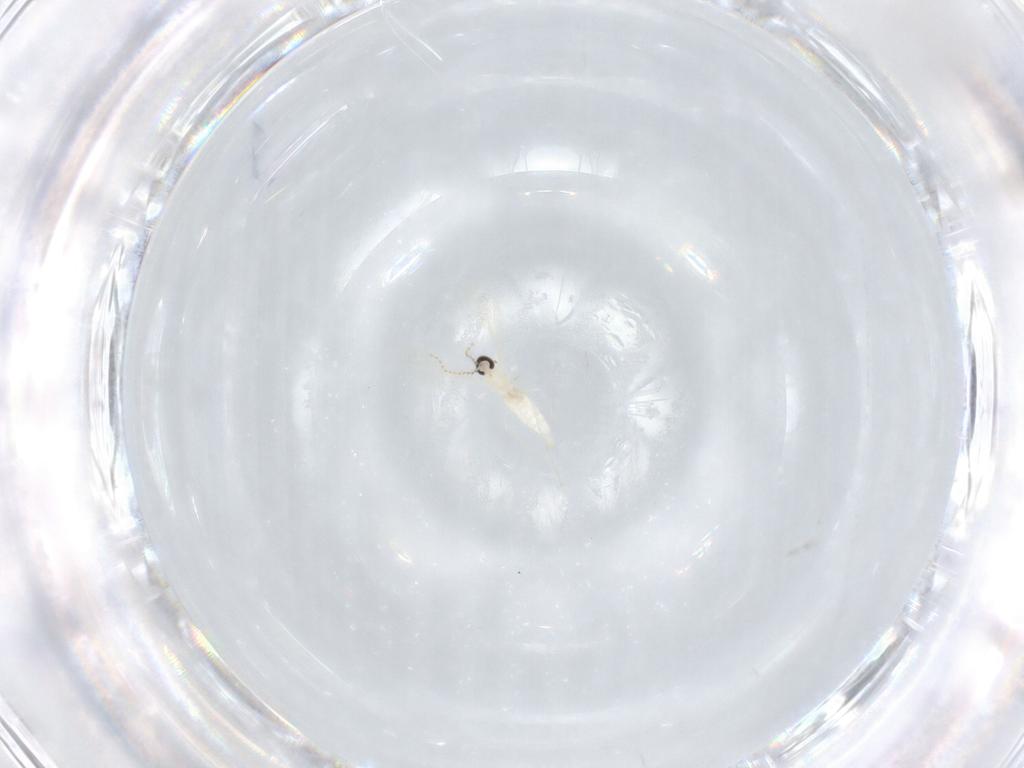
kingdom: Animalia
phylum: Arthropoda
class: Insecta
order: Diptera
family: Cecidomyiidae
